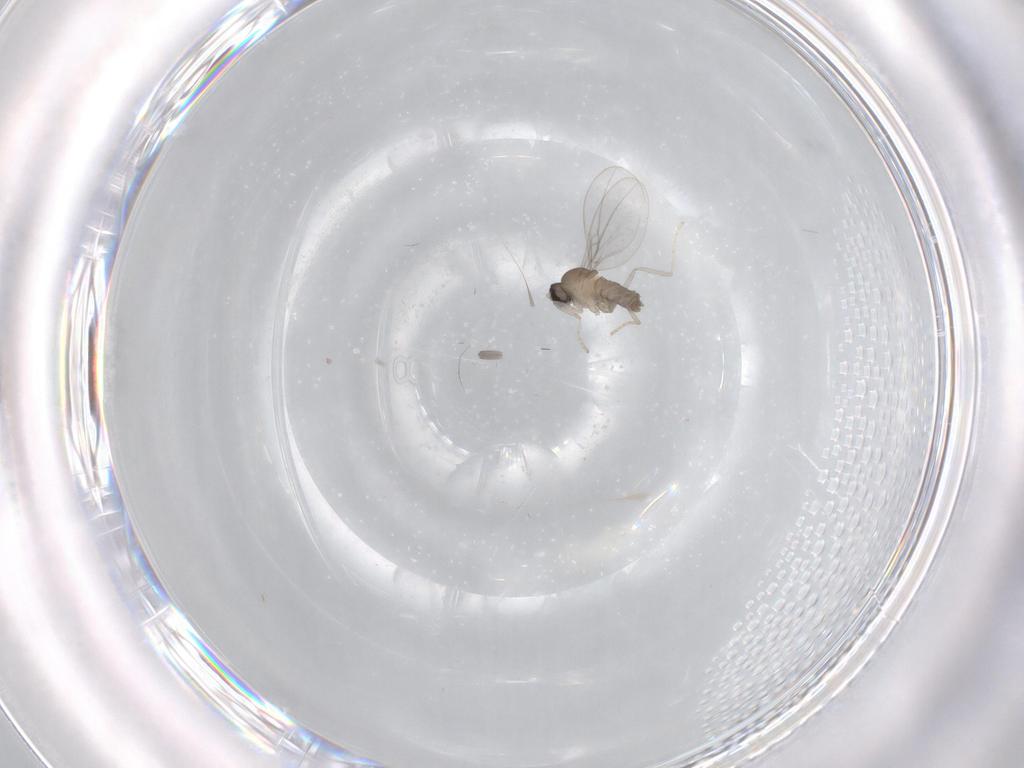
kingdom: Animalia
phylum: Arthropoda
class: Insecta
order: Diptera
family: Cecidomyiidae
